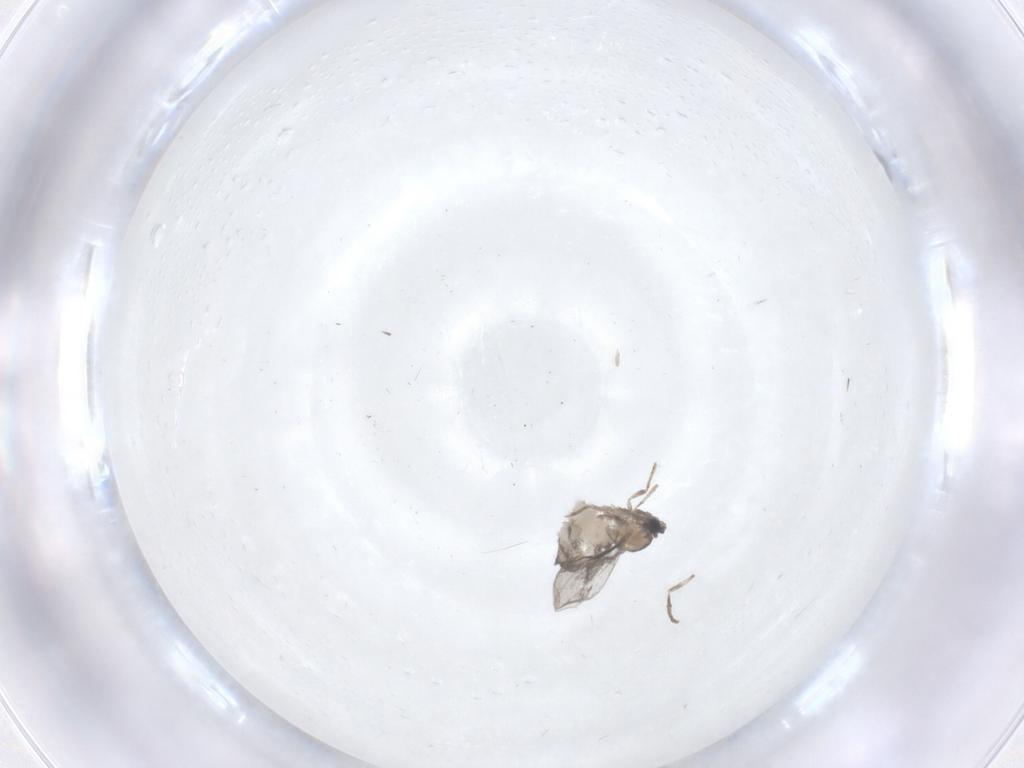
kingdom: Animalia
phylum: Arthropoda
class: Insecta
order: Diptera
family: Cecidomyiidae
